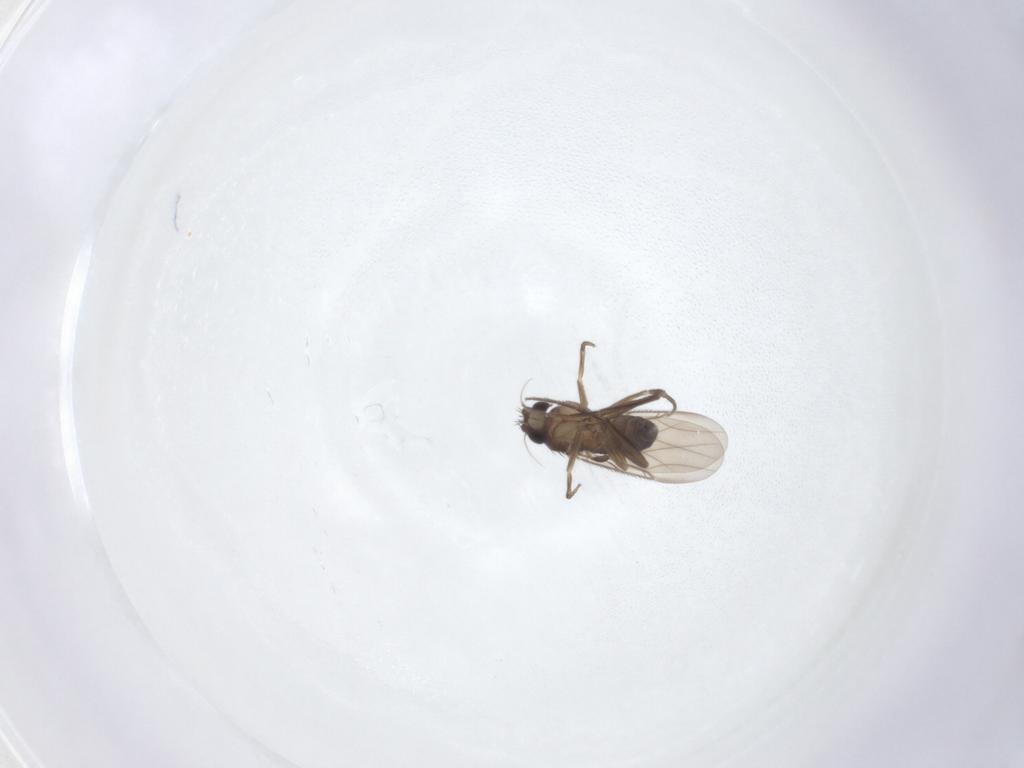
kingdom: Animalia
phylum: Arthropoda
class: Insecta
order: Diptera
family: Phoridae
